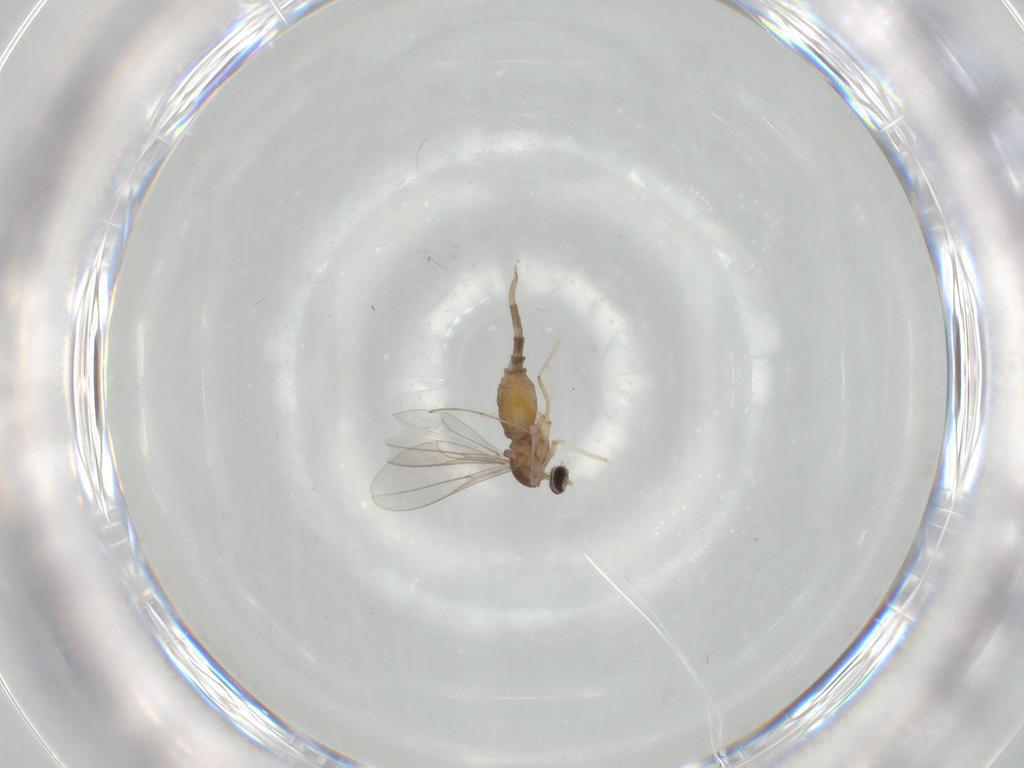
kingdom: Animalia
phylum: Arthropoda
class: Insecta
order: Diptera
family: Cecidomyiidae
